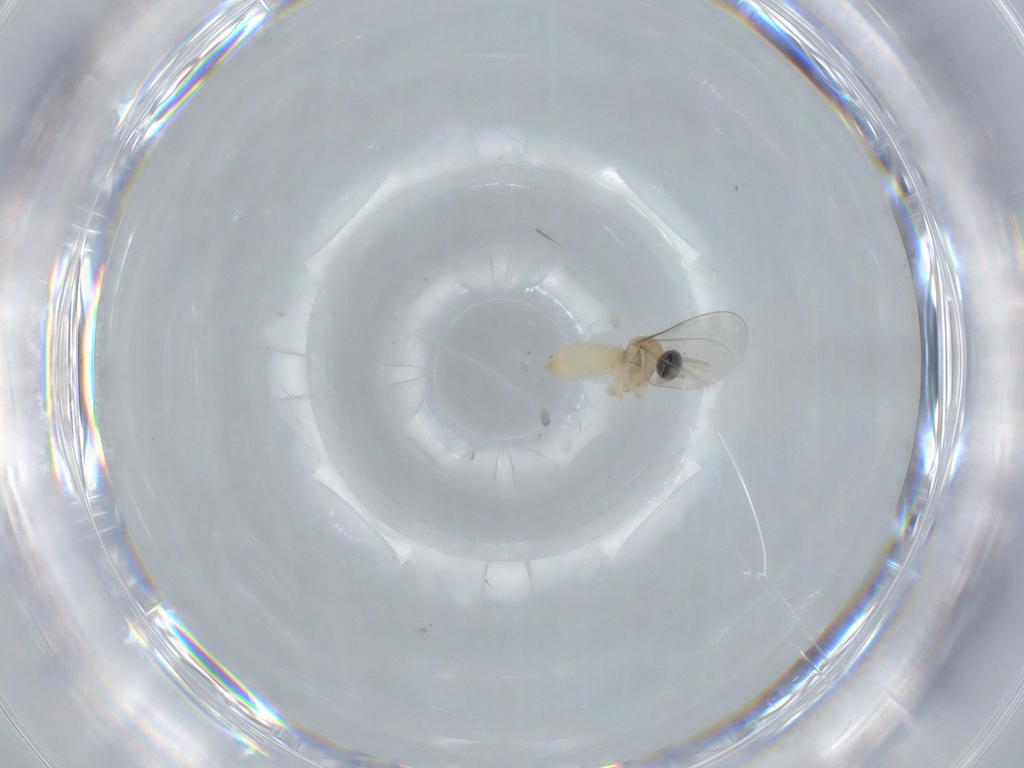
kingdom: Animalia
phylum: Arthropoda
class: Insecta
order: Diptera
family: Cecidomyiidae
